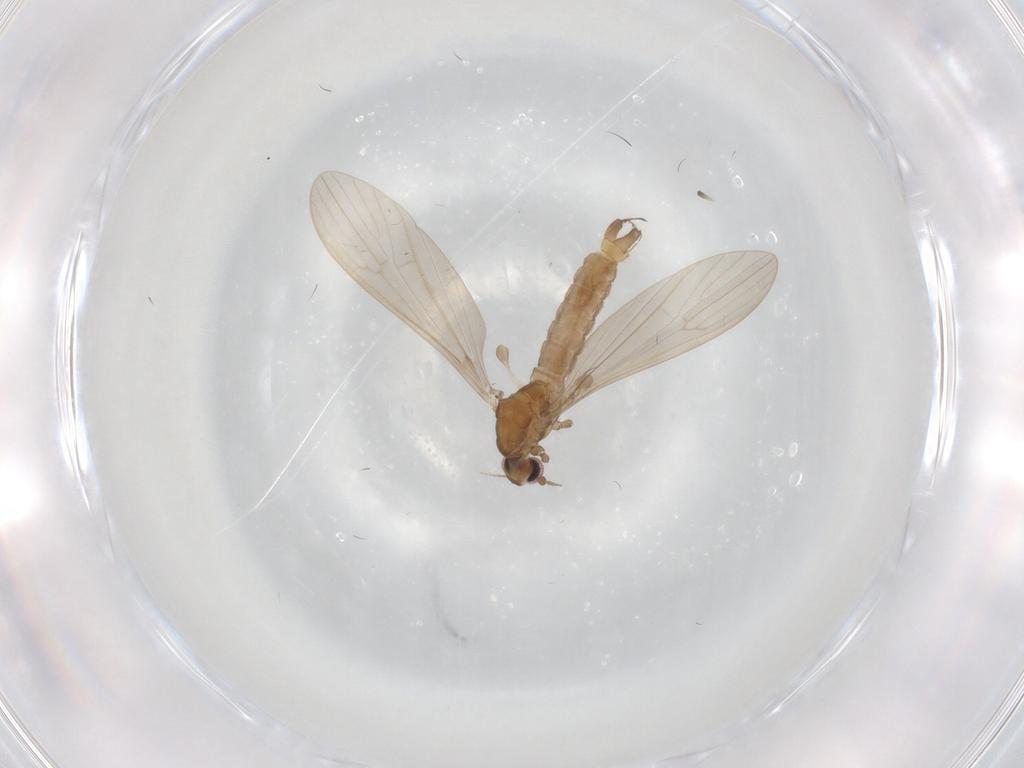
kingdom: Animalia
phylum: Arthropoda
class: Insecta
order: Diptera
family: Limoniidae
